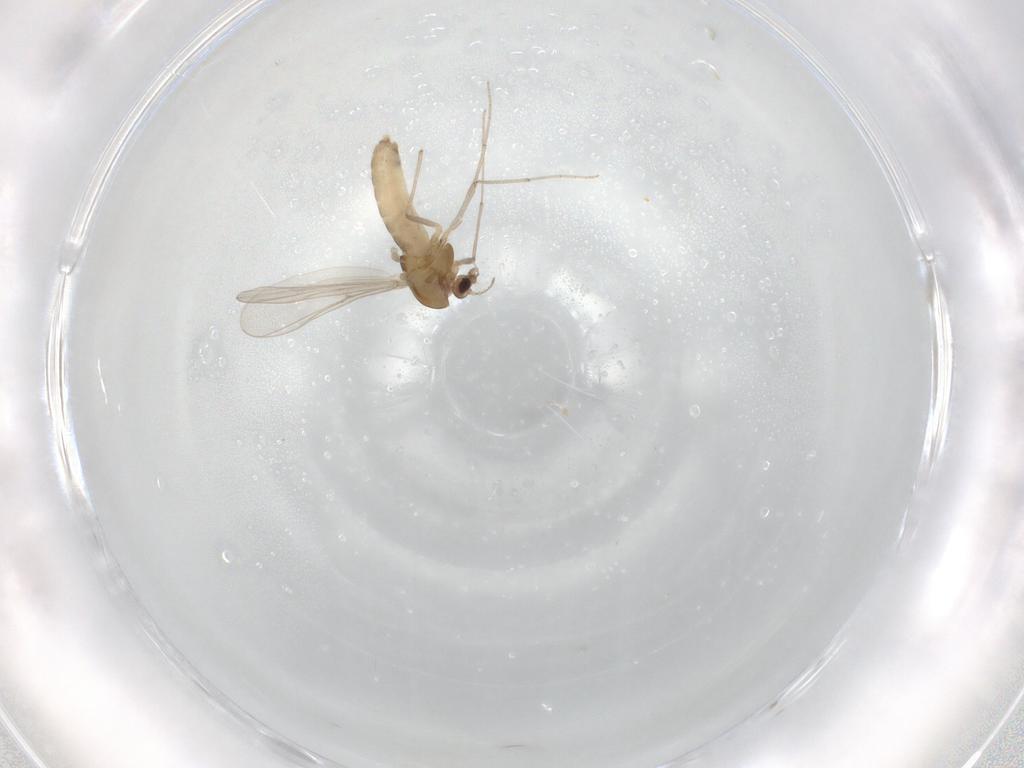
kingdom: Animalia
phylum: Arthropoda
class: Insecta
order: Diptera
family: Chironomidae
